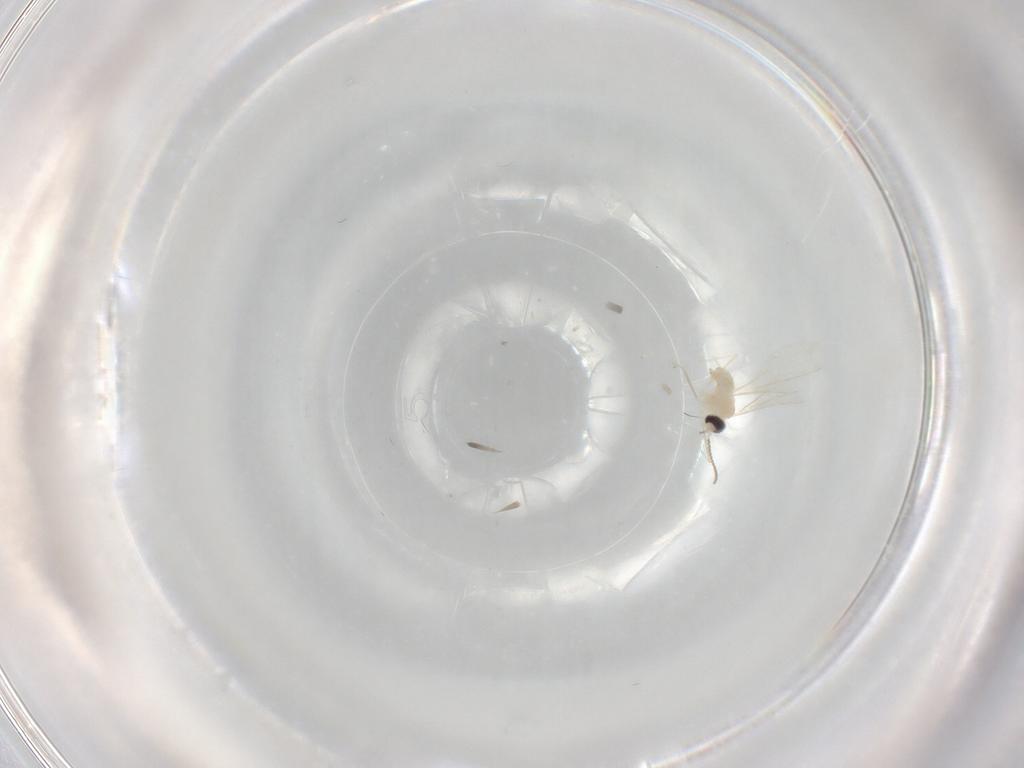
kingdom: Animalia
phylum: Arthropoda
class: Insecta
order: Diptera
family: Phoridae
